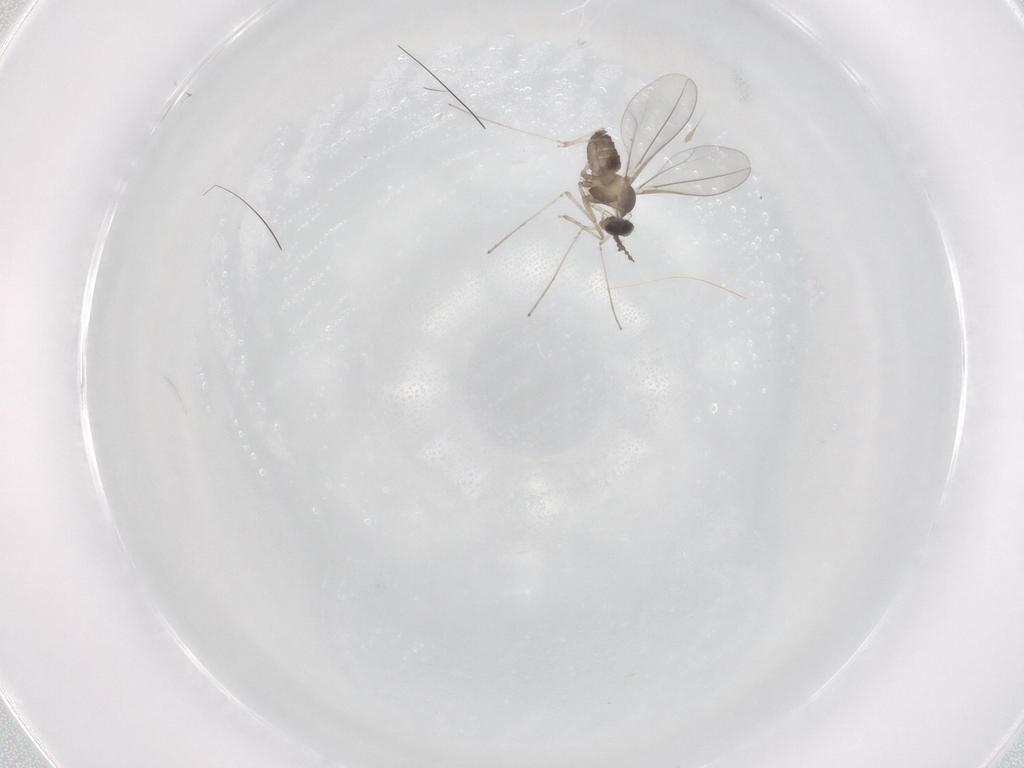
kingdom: Animalia
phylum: Arthropoda
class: Insecta
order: Diptera
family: Cecidomyiidae
